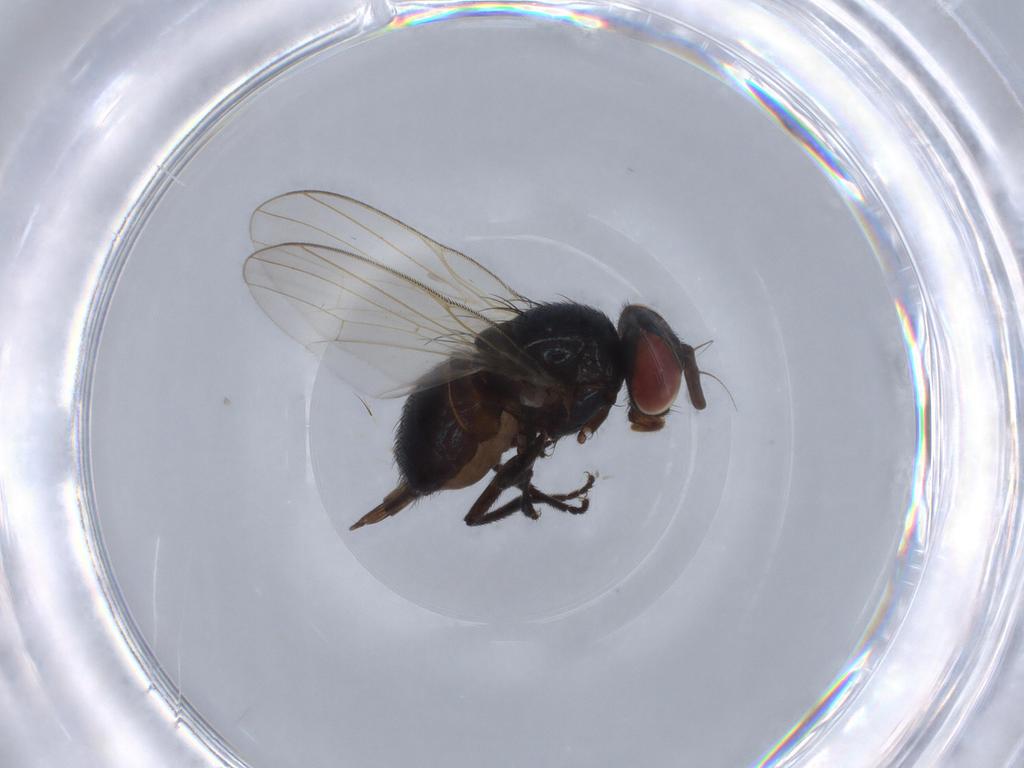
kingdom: Animalia
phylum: Arthropoda
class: Insecta
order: Diptera
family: Lonchaeidae
